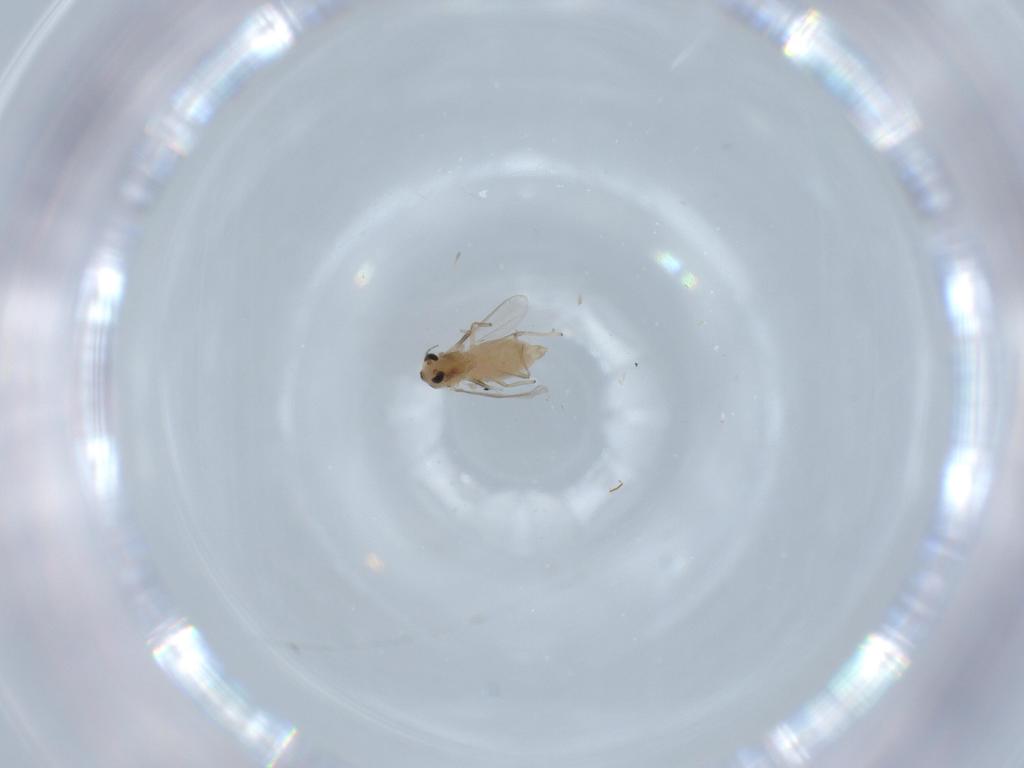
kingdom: Animalia
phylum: Arthropoda
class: Insecta
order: Diptera
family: Chironomidae
